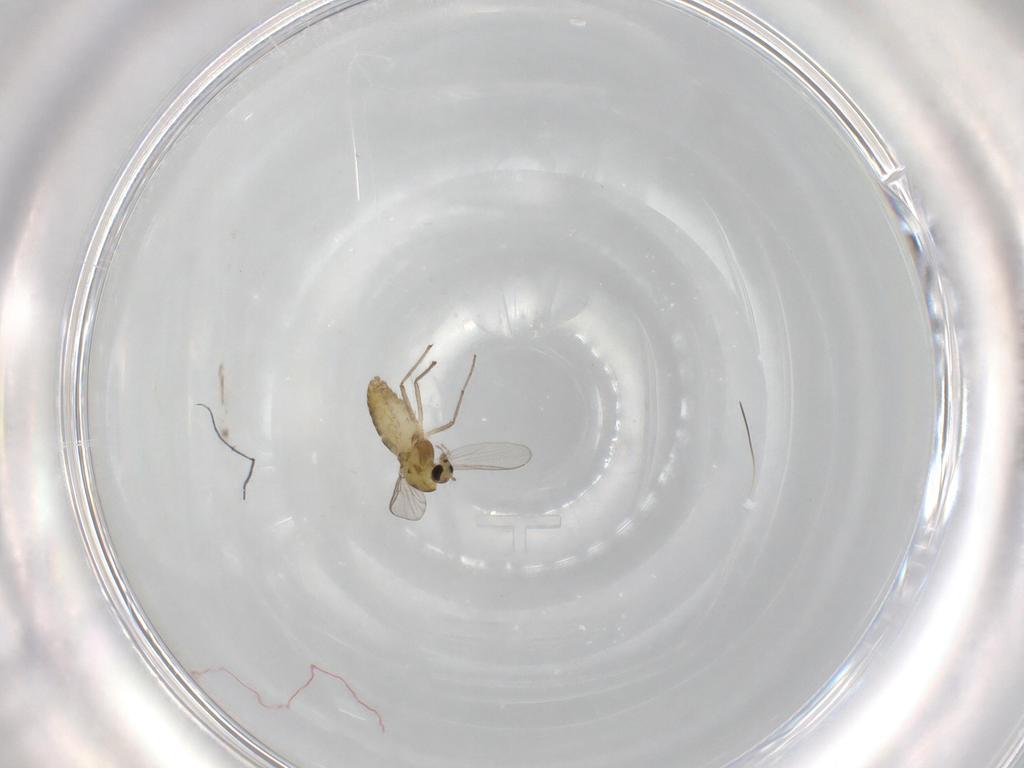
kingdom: Animalia
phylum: Arthropoda
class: Insecta
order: Diptera
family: Chironomidae
